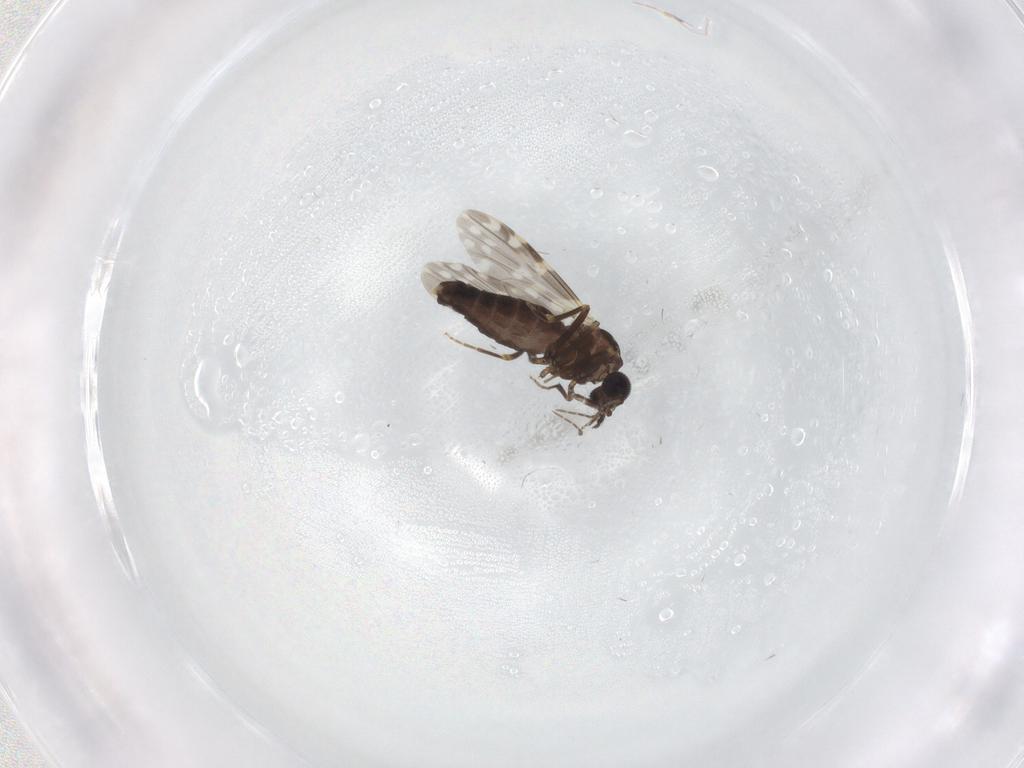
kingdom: Animalia
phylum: Arthropoda
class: Insecta
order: Diptera
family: Ceratopogonidae
